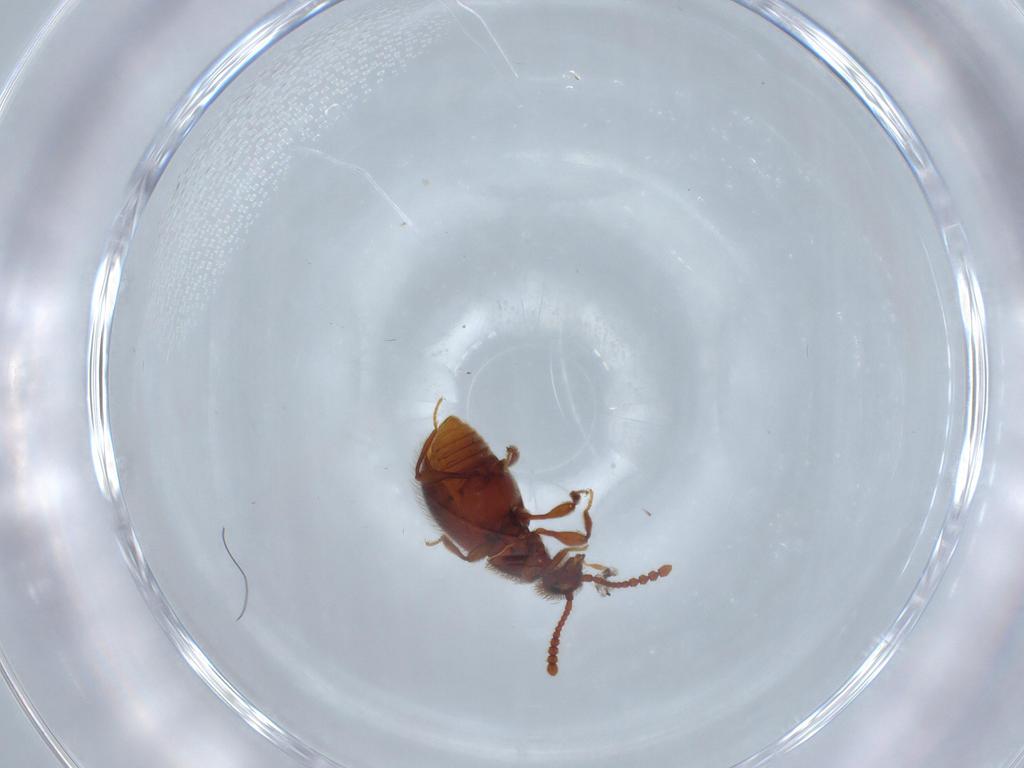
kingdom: Animalia
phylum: Arthropoda
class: Insecta
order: Coleoptera
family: Staphylinidae
